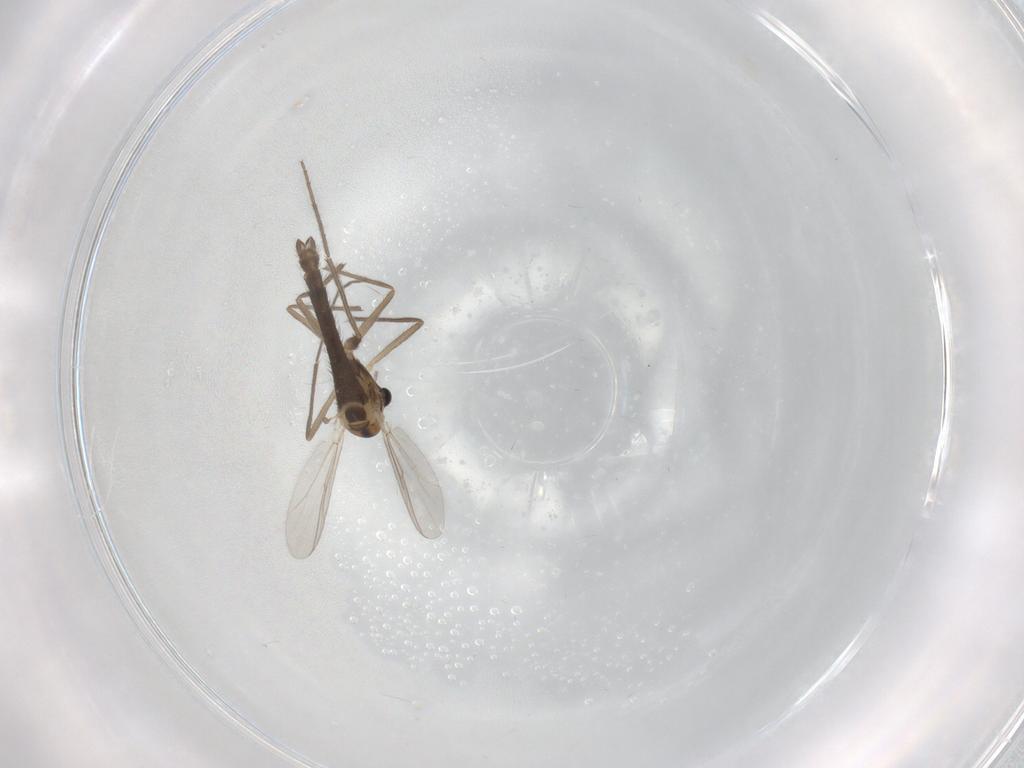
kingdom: Animalia
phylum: Arthropoda
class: Insecta
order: Diptera
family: Chironomidae
